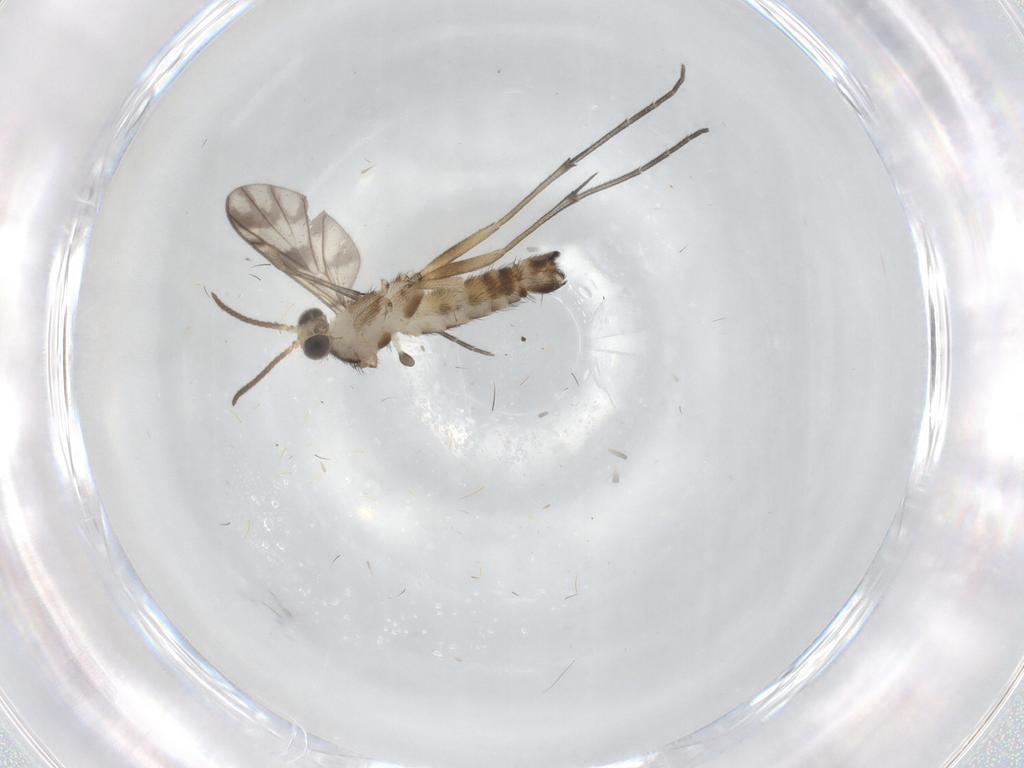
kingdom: Animalia
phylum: Arthropoda
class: Insecta
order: Diptera
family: Keroplatidae
